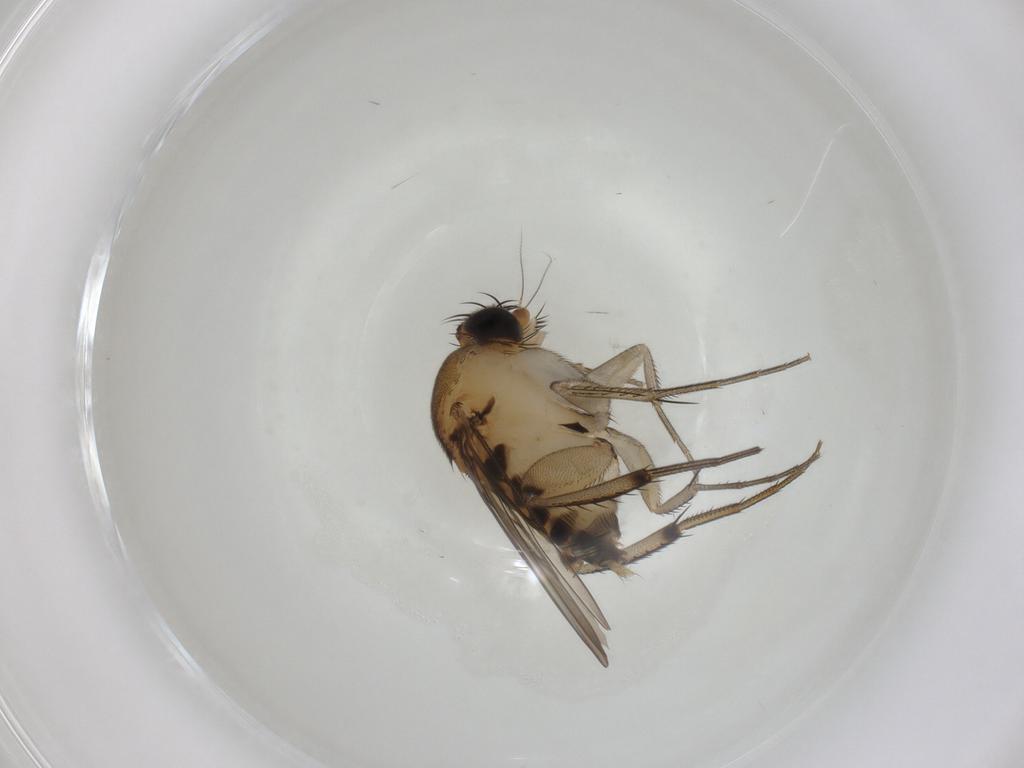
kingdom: Animalia
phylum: Arthropoda
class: Insecta
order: Diptera
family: Phoridae
